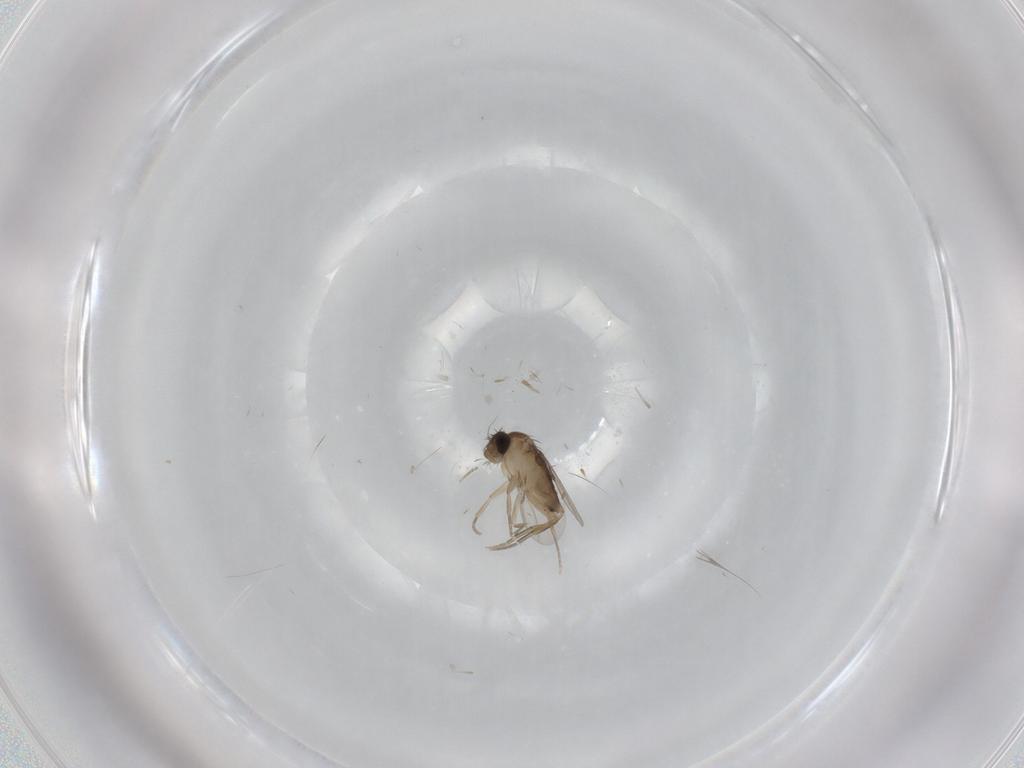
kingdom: Animalia
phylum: Arthropoda
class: Insecta
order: Diptera
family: Phoridae
